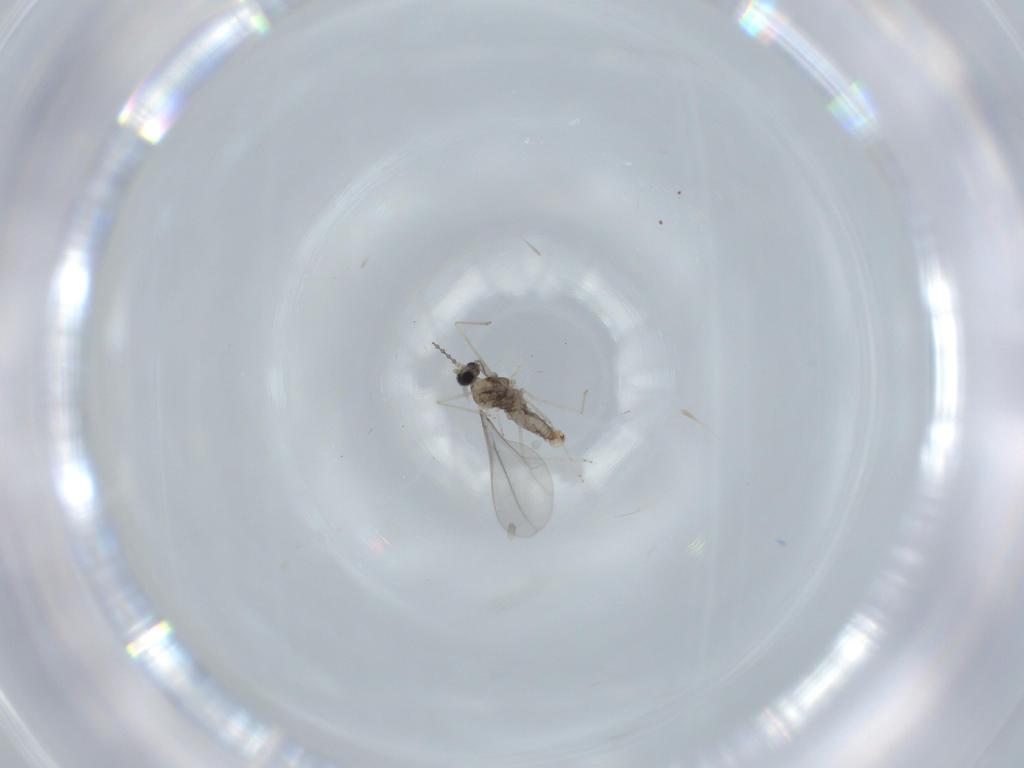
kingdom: Animalia
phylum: Arthropoda
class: Insecta
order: Diptera
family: Cecidomyiidae
